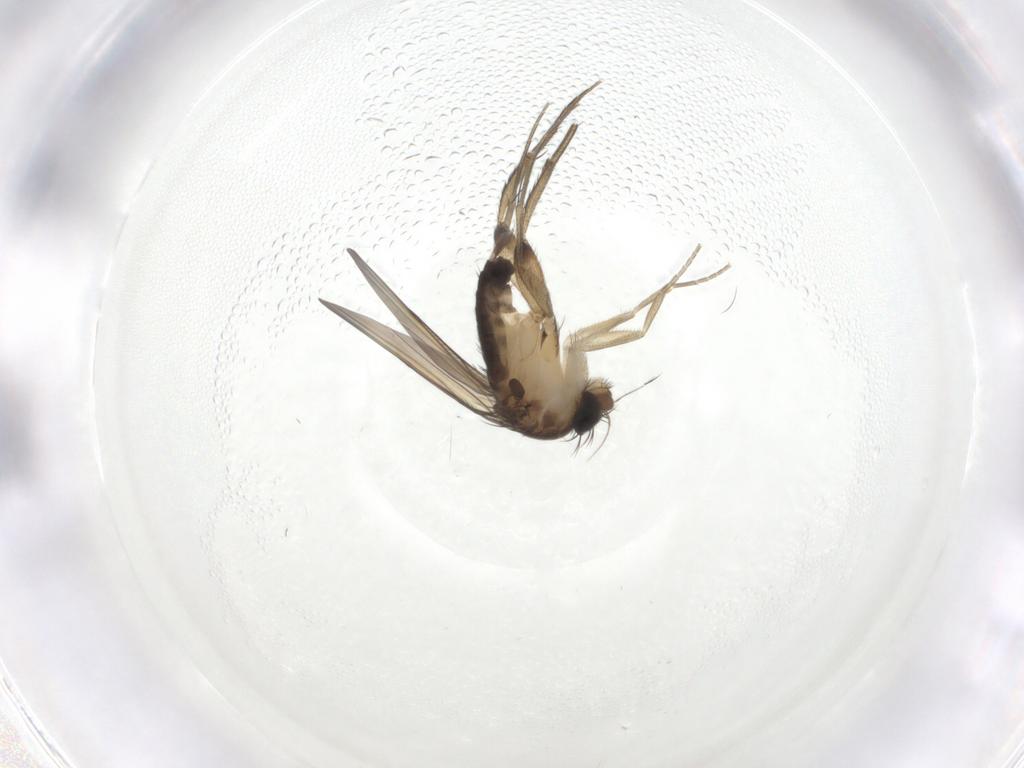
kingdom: Animalia
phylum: Arthropoda
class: Insecta
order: Diptera
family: Phoridae
